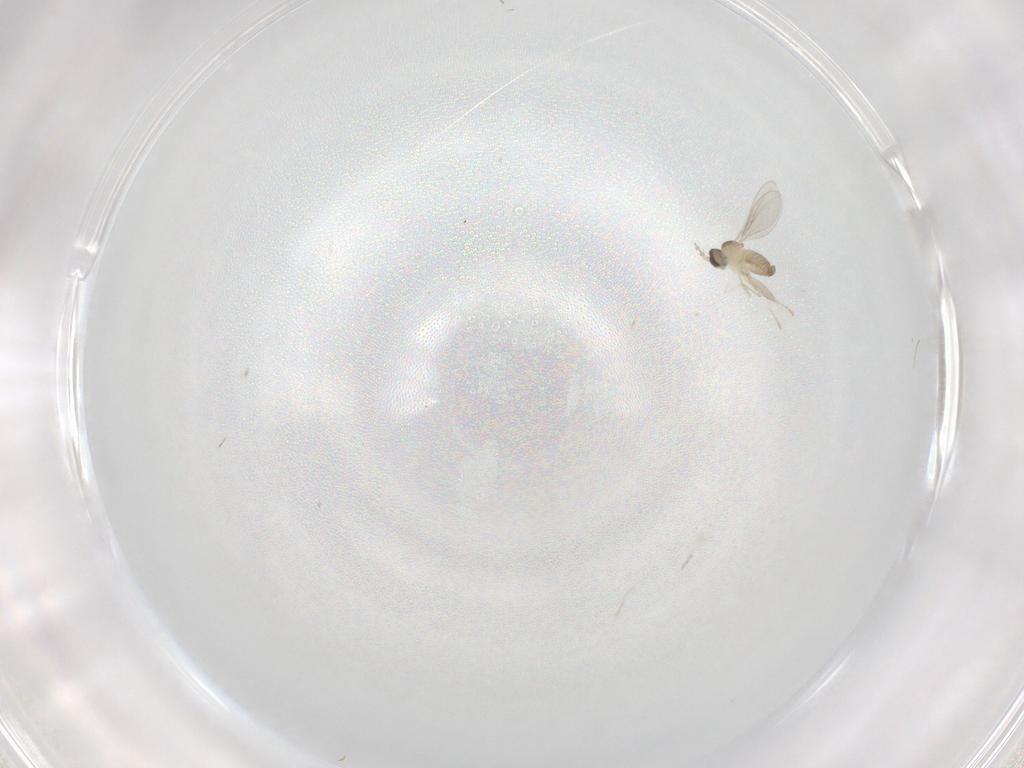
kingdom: Animalia
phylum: Arthropoda
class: Insecta
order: Diptera
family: Cecidomyiidae
